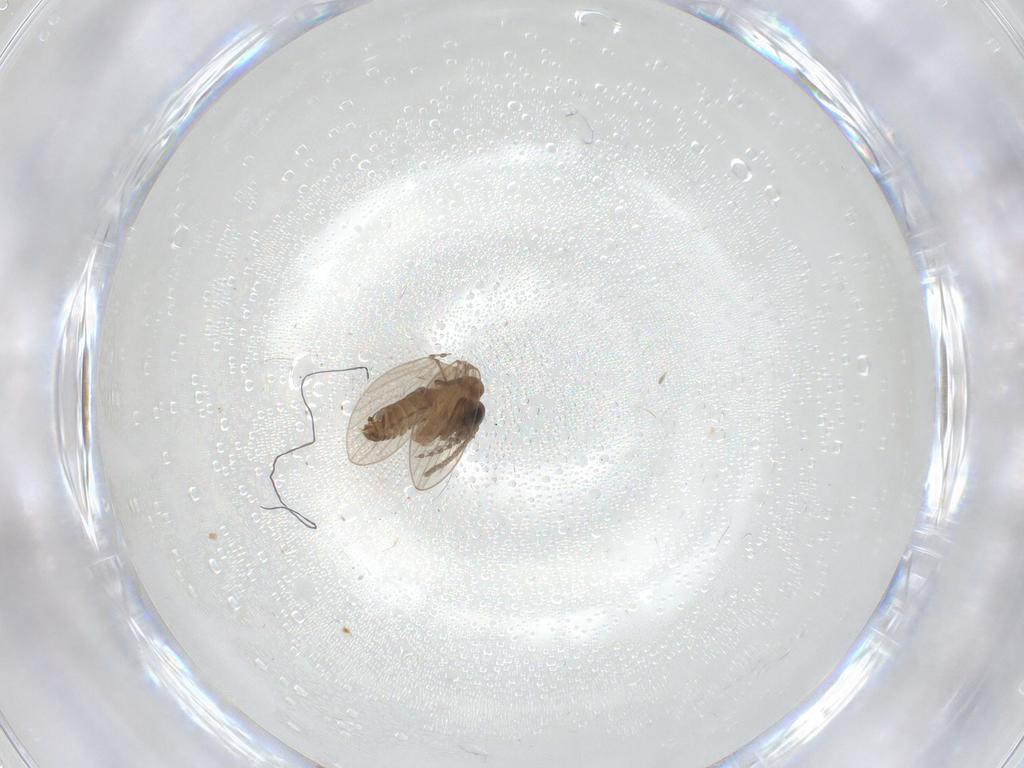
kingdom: Animalia
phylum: Arthropoda
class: Insecta
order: Diptera
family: Psychodidae
